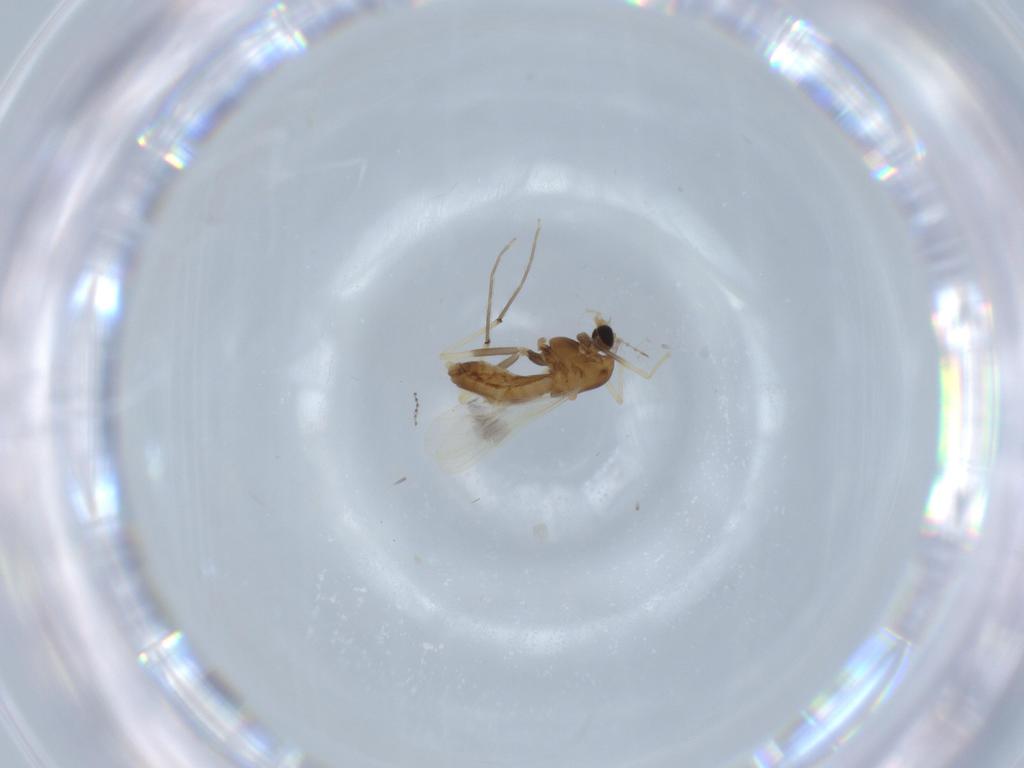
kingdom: Animalia
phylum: Arthropoda
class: Insecta
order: Diptera
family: Chironomidae
